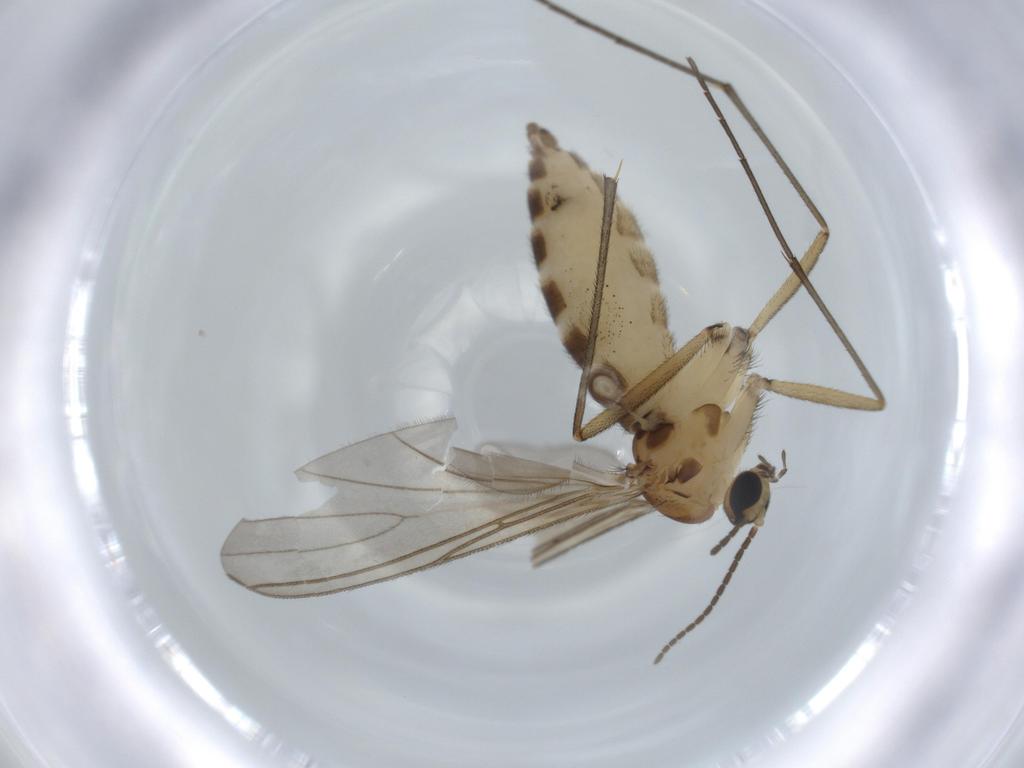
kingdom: Animalia
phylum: Arthropoda
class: Insecta
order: Diptera
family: Sciaridae
